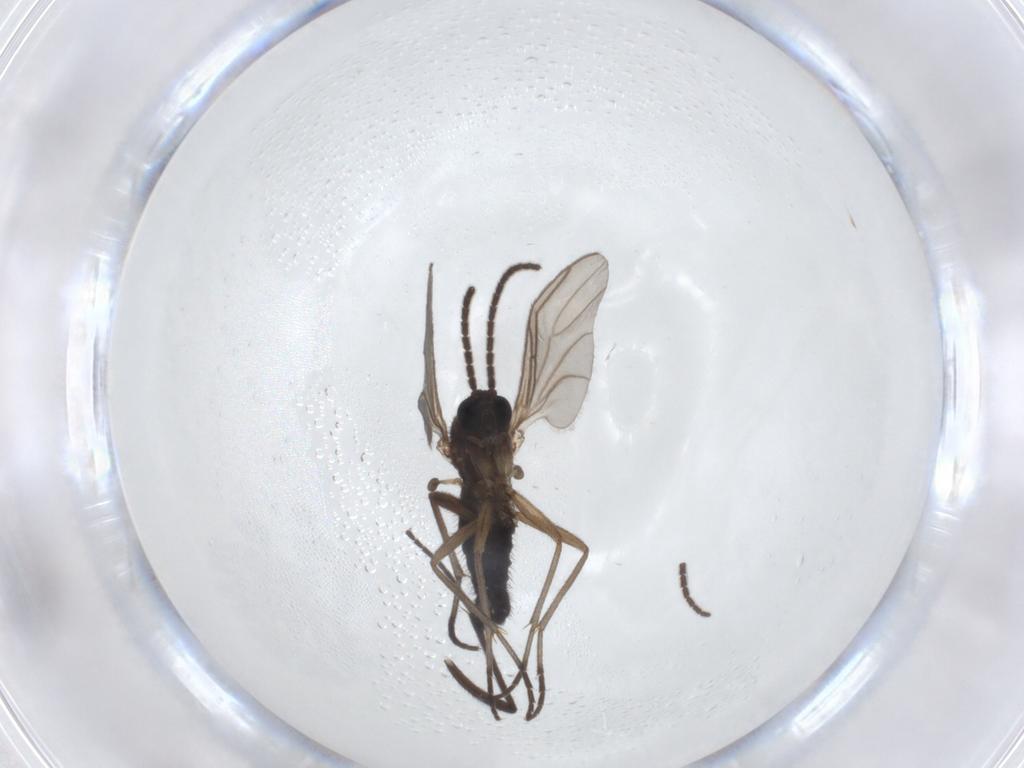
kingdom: Animalia
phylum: Arthropoda
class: Insecta
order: Diptera
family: Sciaridae
